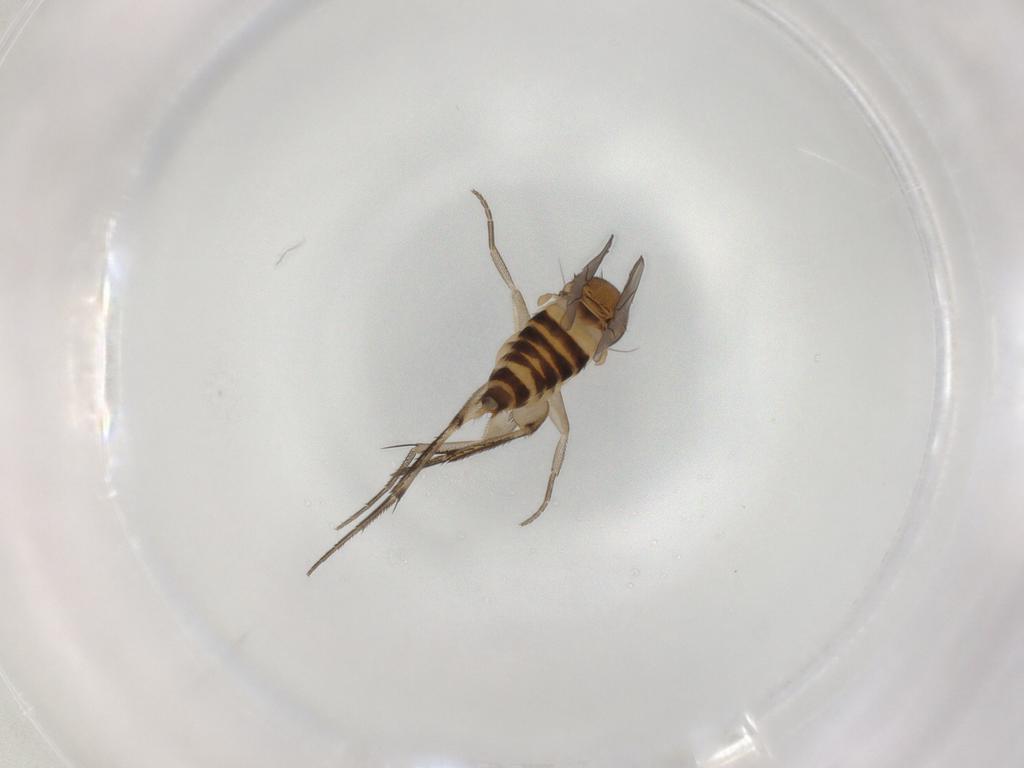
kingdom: Animalia
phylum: Arthropoda
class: Insecta
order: Diptera
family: Phoridae
